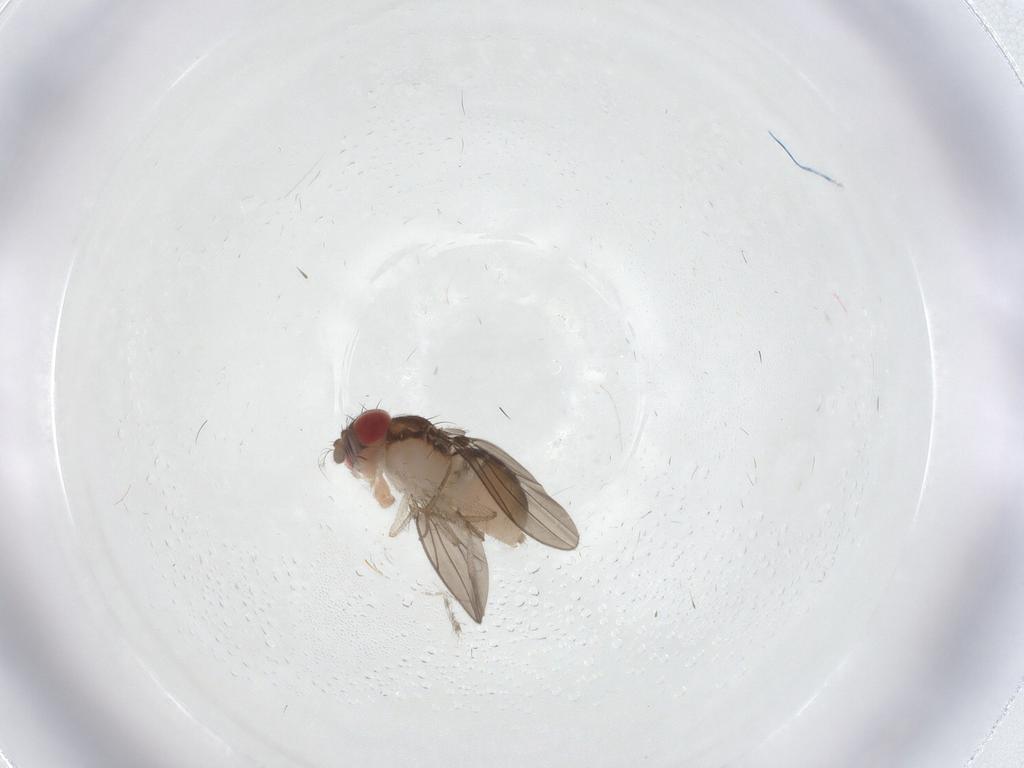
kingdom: Animalia
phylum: Arthropoda
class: Insecta
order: Diptera
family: Drosophilidae
